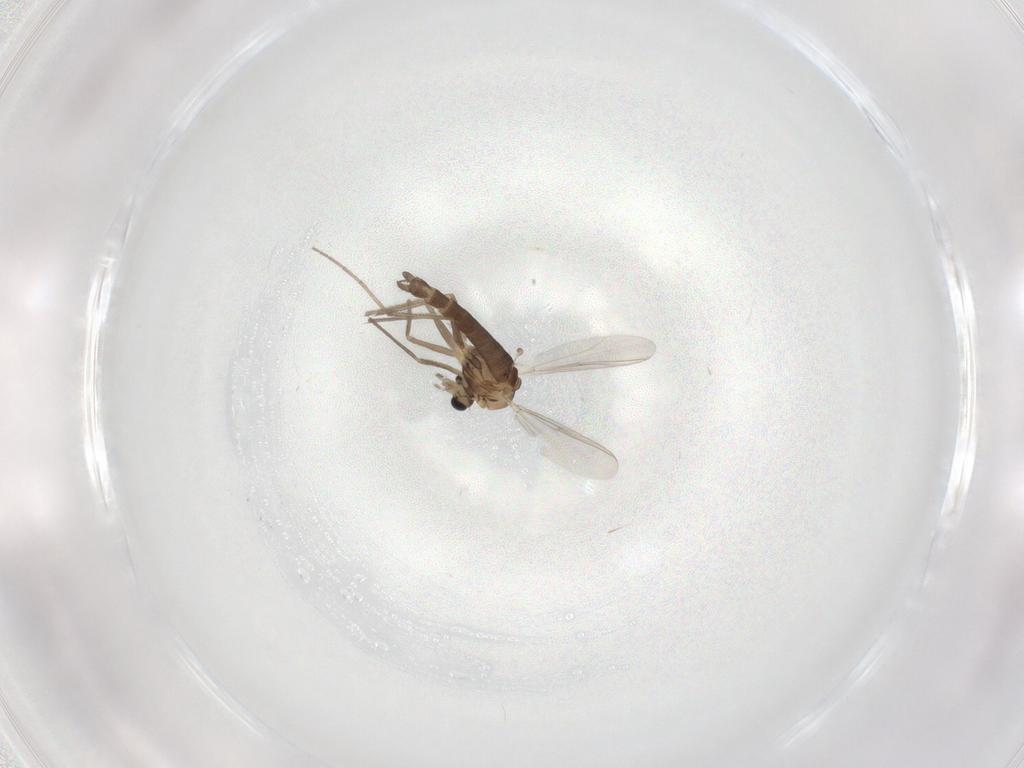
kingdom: Animalia
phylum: Arthropoda
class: Insecta
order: Diptera
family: Chironomidae
